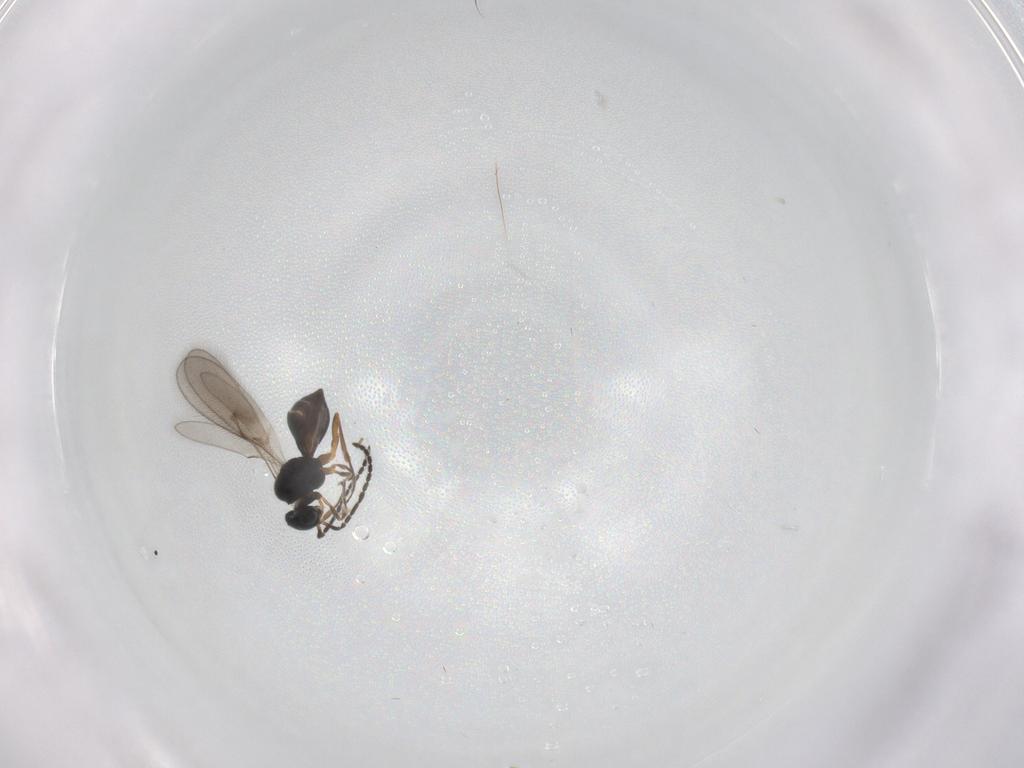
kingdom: Animalia
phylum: Arthropoda
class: Insecta
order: Hymenoptera
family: Scelionidae
